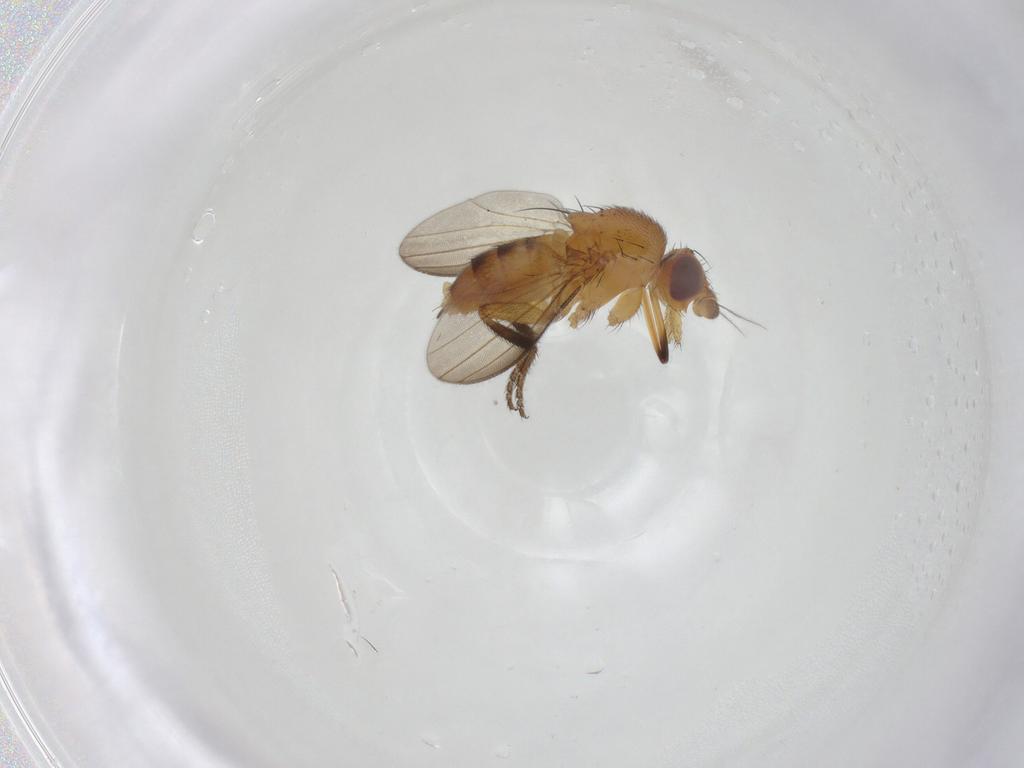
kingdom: Animalia
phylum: Arthropoda
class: Insecta
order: Diptera
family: Milichiidae
